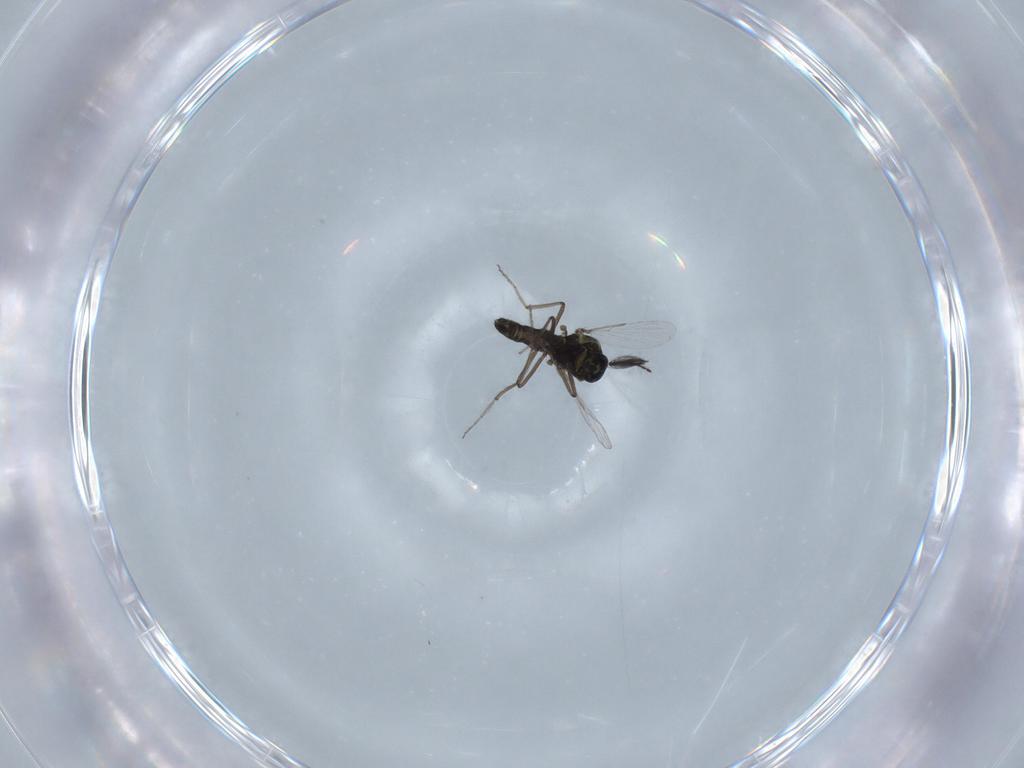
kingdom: Animalia
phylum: Arthropoda
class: Insecta
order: Diptera
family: Ceratopogonidae
